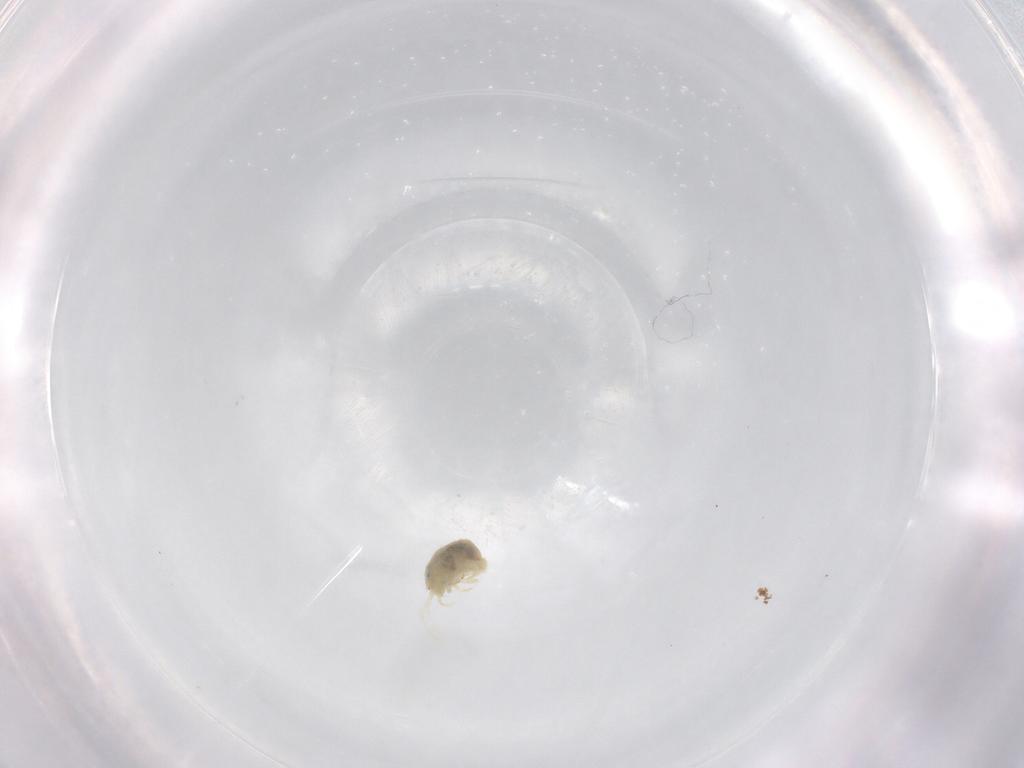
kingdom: Animalia
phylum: Arthropoda
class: Arachnida
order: Trombidiformes
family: Tetranychidae
